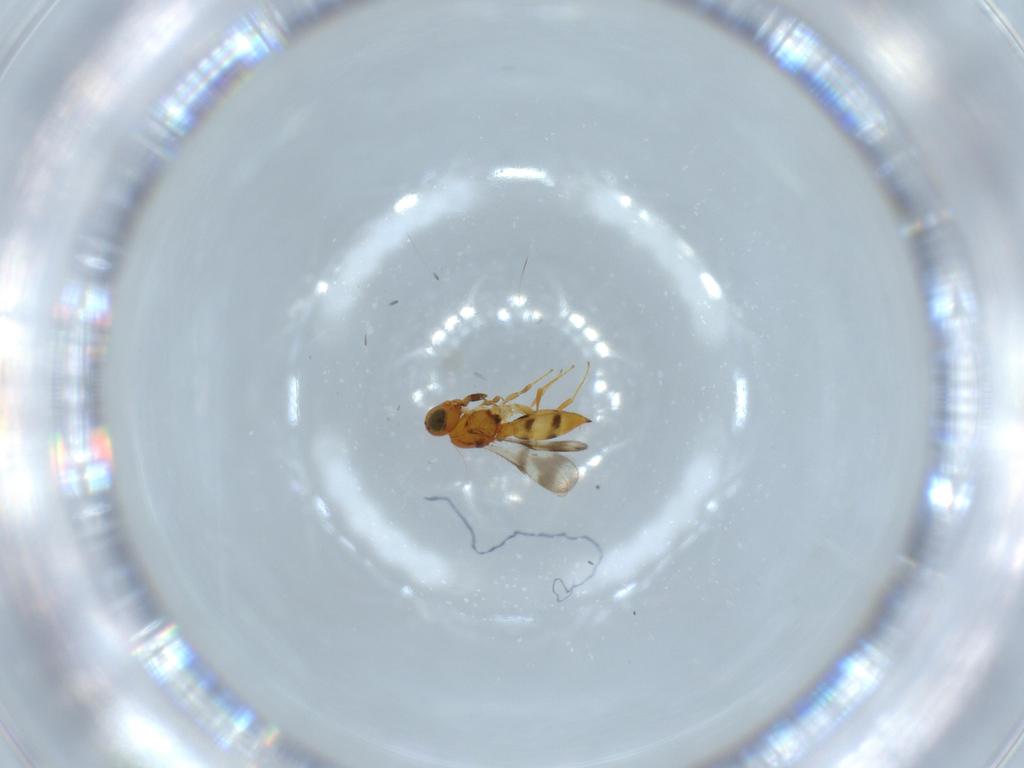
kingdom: Animalia
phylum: Arthropoda
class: Insecta
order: Hymenoptera
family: Scelionidae
